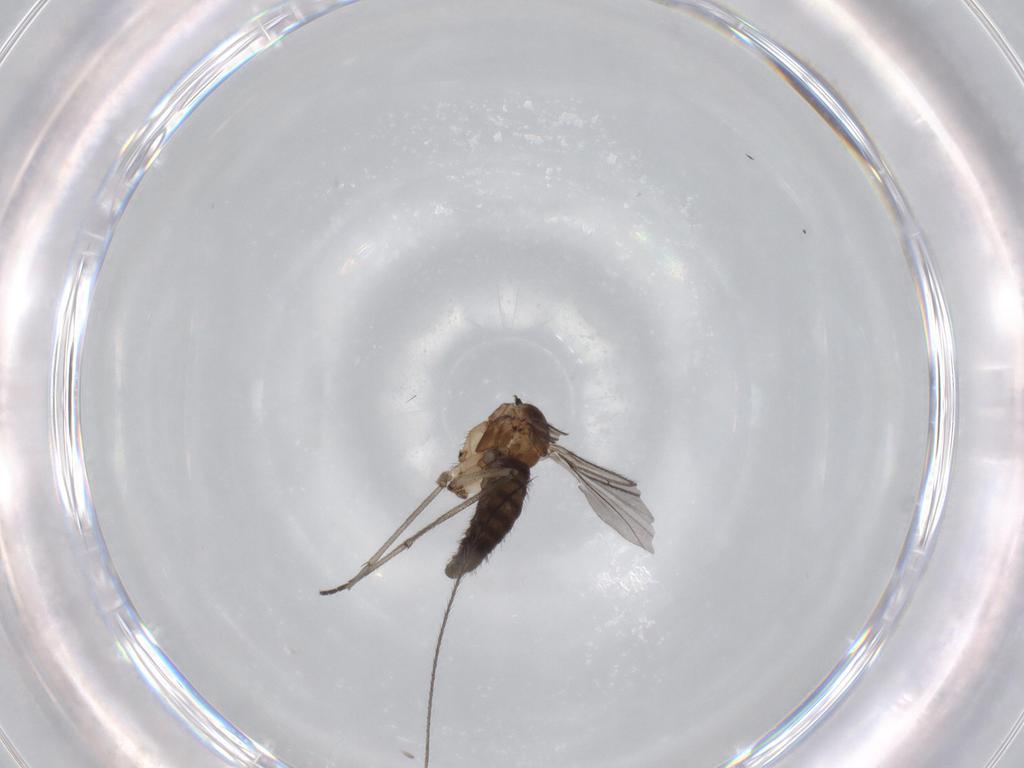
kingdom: Animalia
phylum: Arthropoda
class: Insecta
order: Diptera
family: Sciaridae
